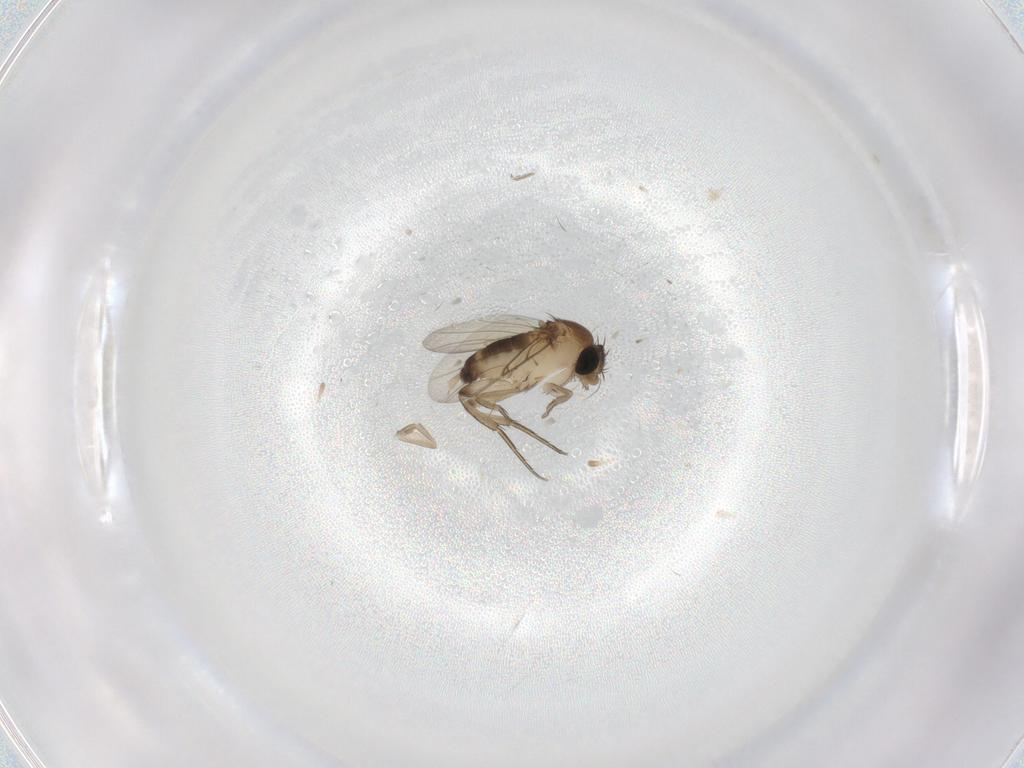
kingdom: Animalia
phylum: Arthropoda
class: Insecta
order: Diptera
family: Phoridae
